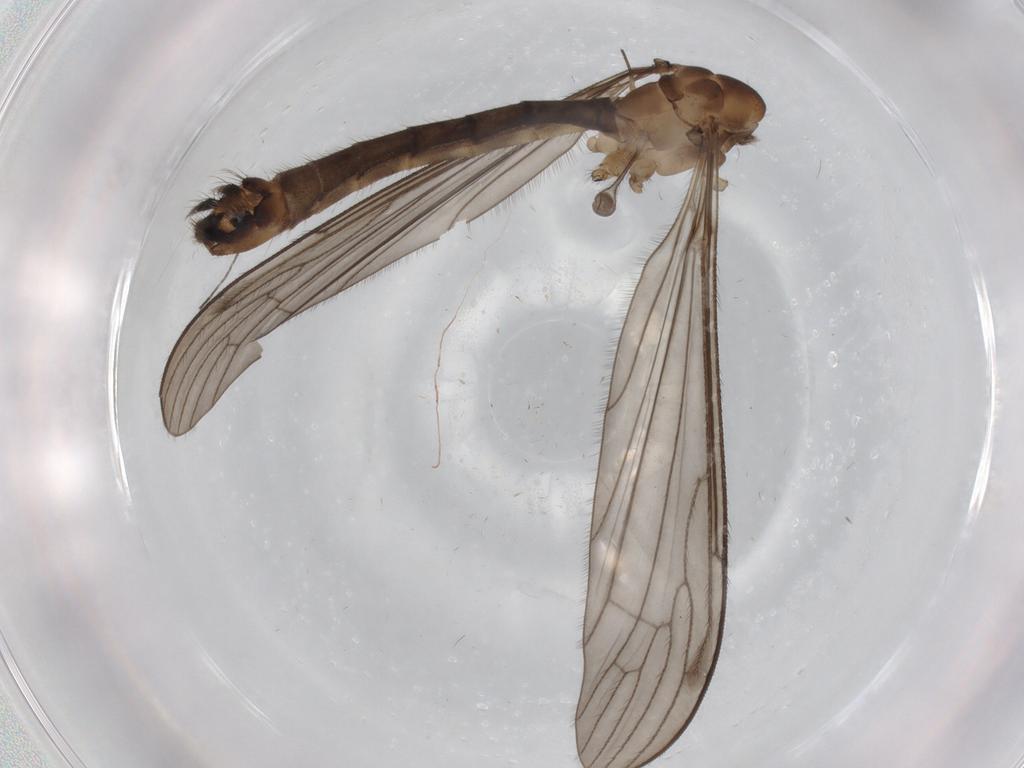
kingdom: Animalia
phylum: Arthropoda
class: Insecta
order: Diptera
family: Limoniidae
